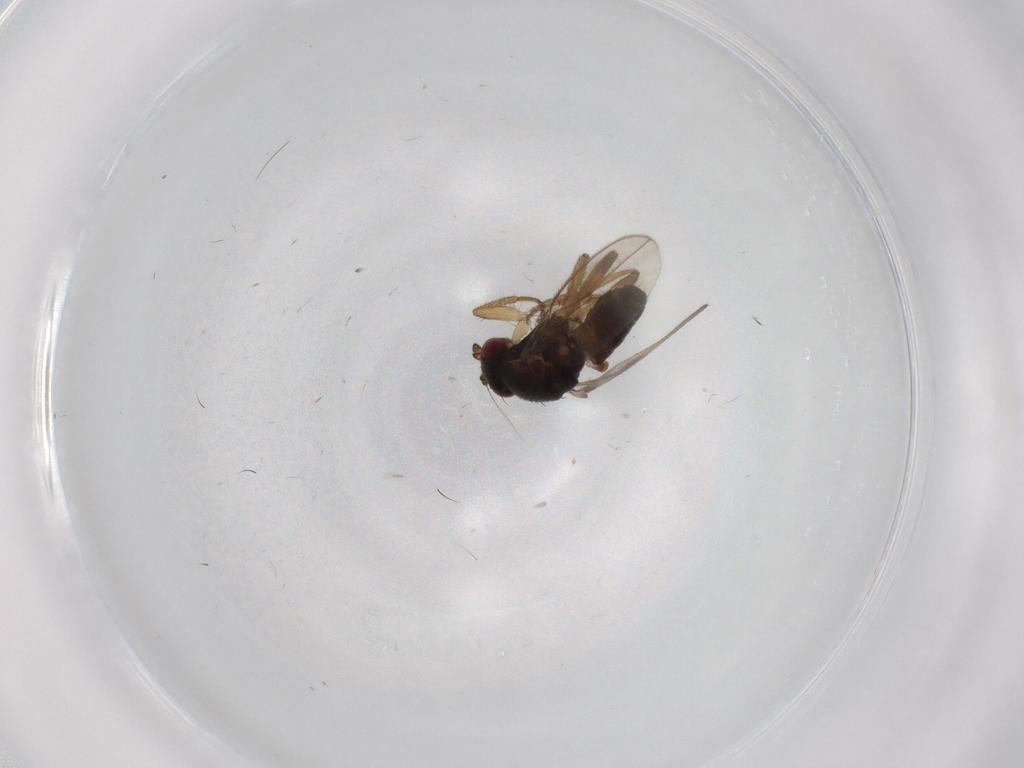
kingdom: Animalia
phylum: Arthropoda
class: Insecta
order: Diptera
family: Sphaeroceridae
